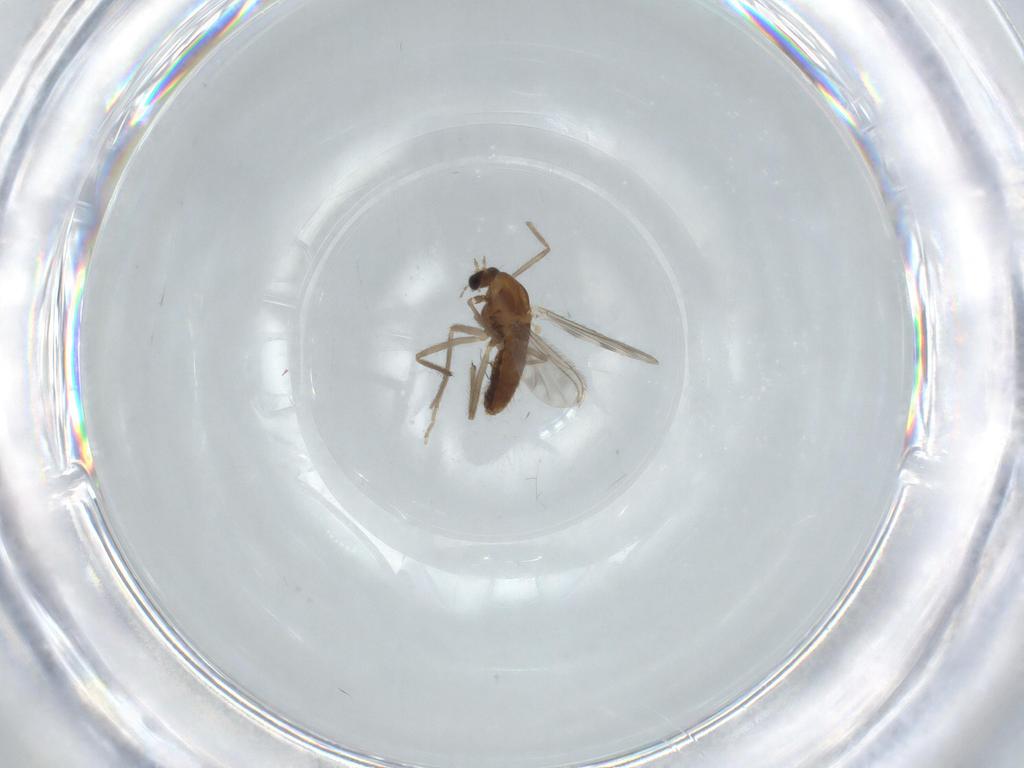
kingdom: Animalia
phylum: Arthropoda
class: Insecta
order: Diptera
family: Chironomidae
